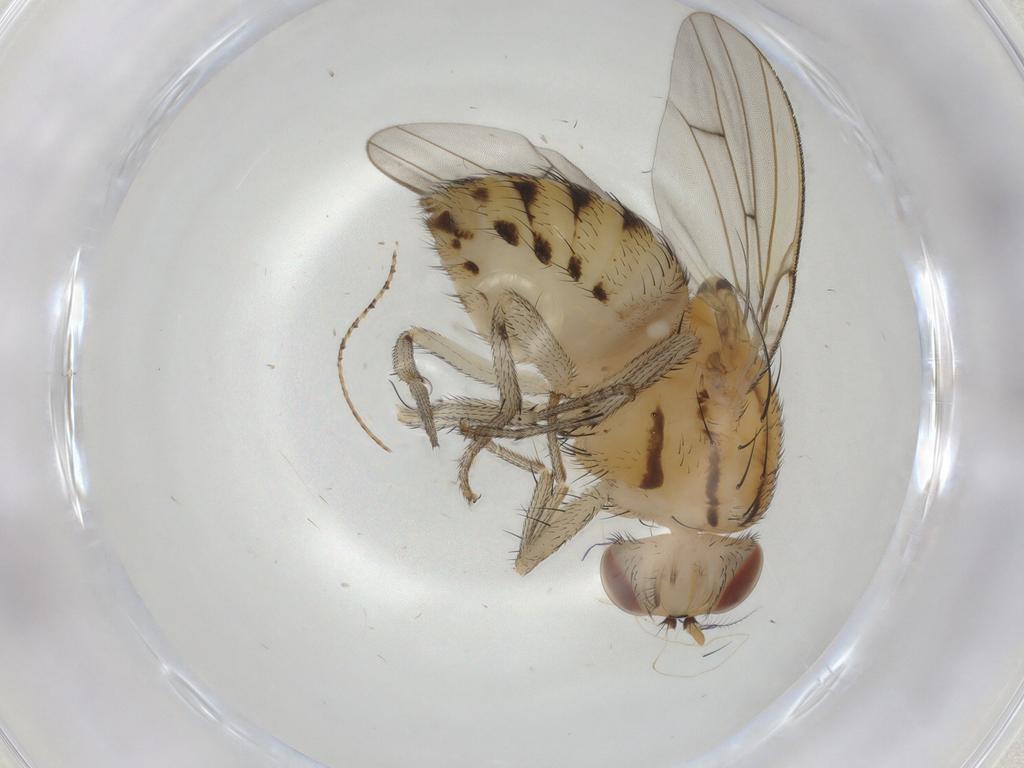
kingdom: Animalia
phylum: Arthropoda
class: Insecta
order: Diptera
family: Lauxaniidae
